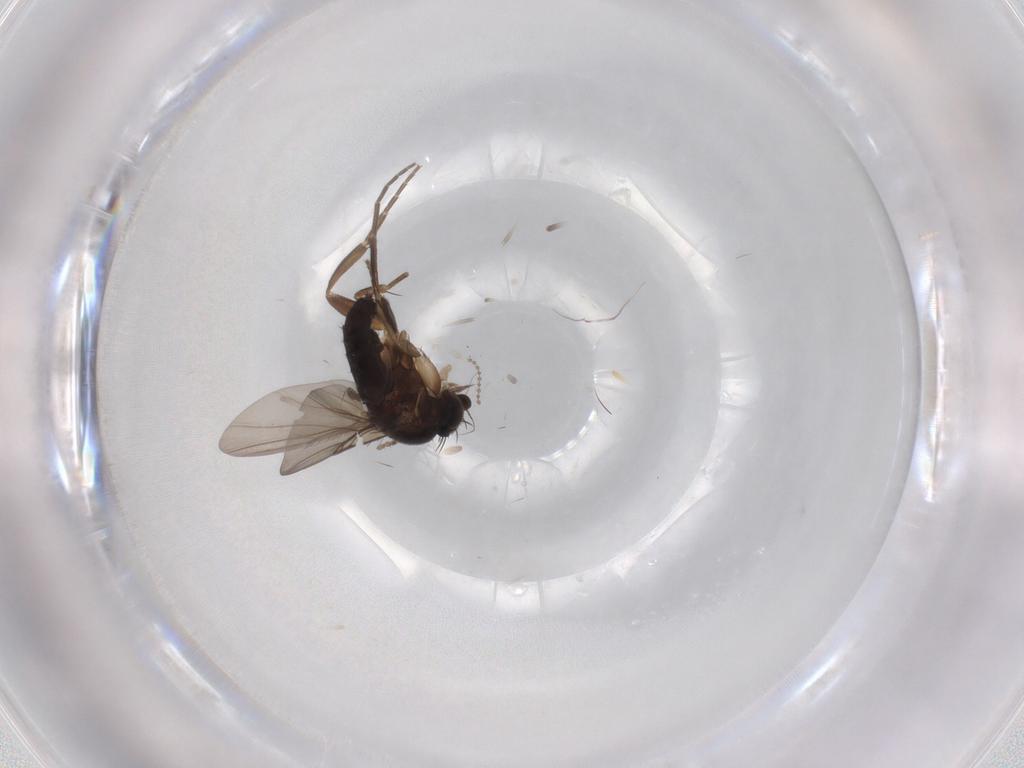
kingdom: Animalia
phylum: Arthropoda
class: Insecta
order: Diptera
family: Phoridae
